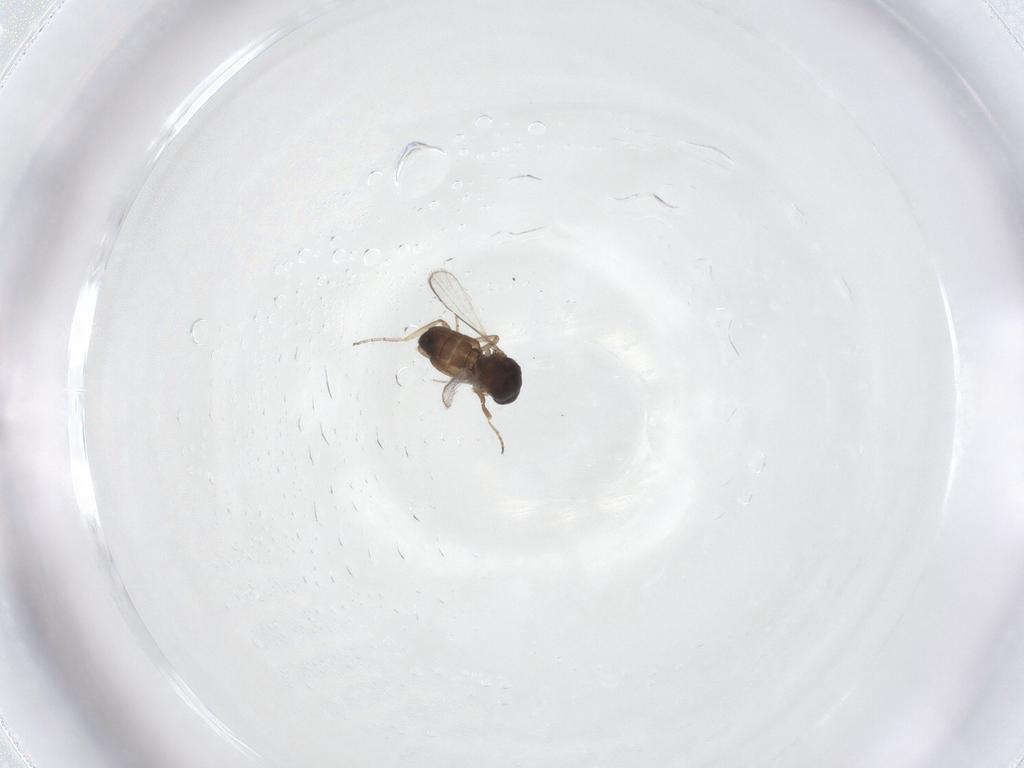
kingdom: Animalia
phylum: Arthropoda
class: Insecta
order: Diptera
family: Ceratopogonidae
